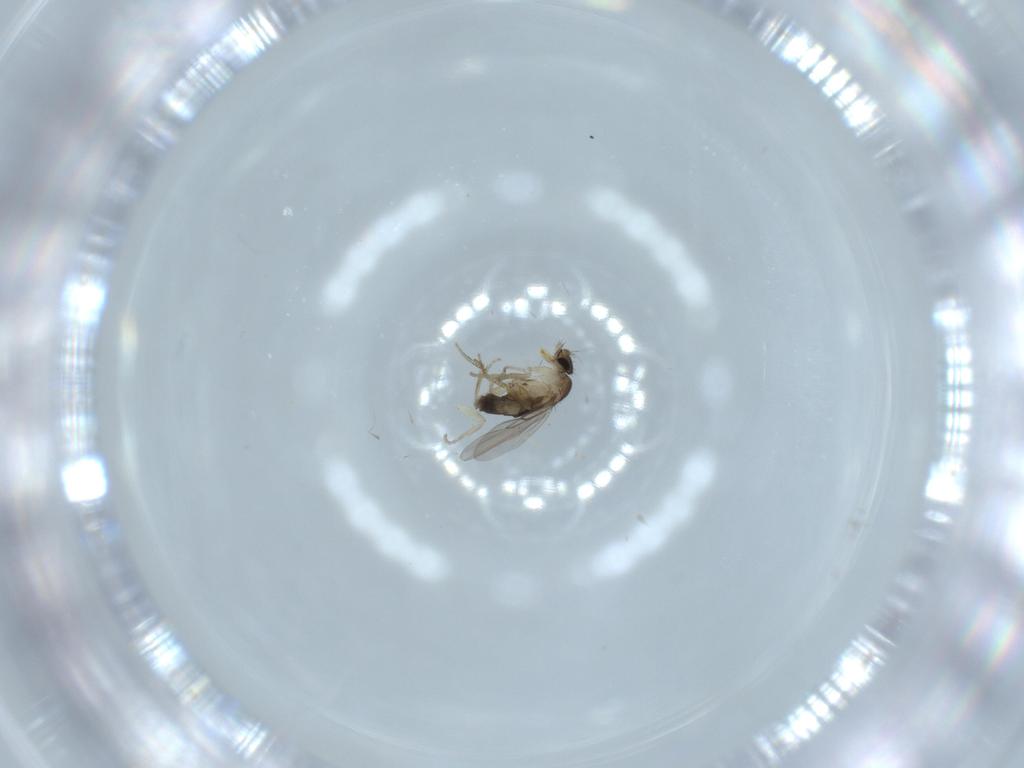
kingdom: Animalia
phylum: Arthropoda
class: Insecta
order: Diptera
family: Phoridae
